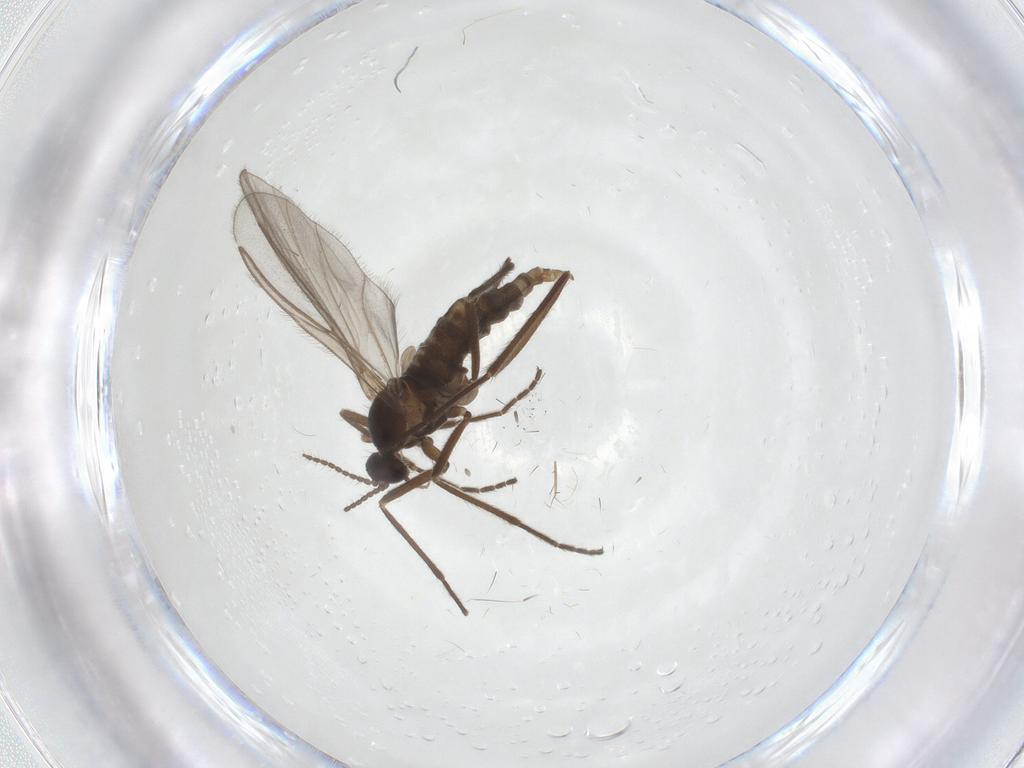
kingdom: Animalia
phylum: Arthropoda
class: Insecta
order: Diptera
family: Cecidomyiidae
